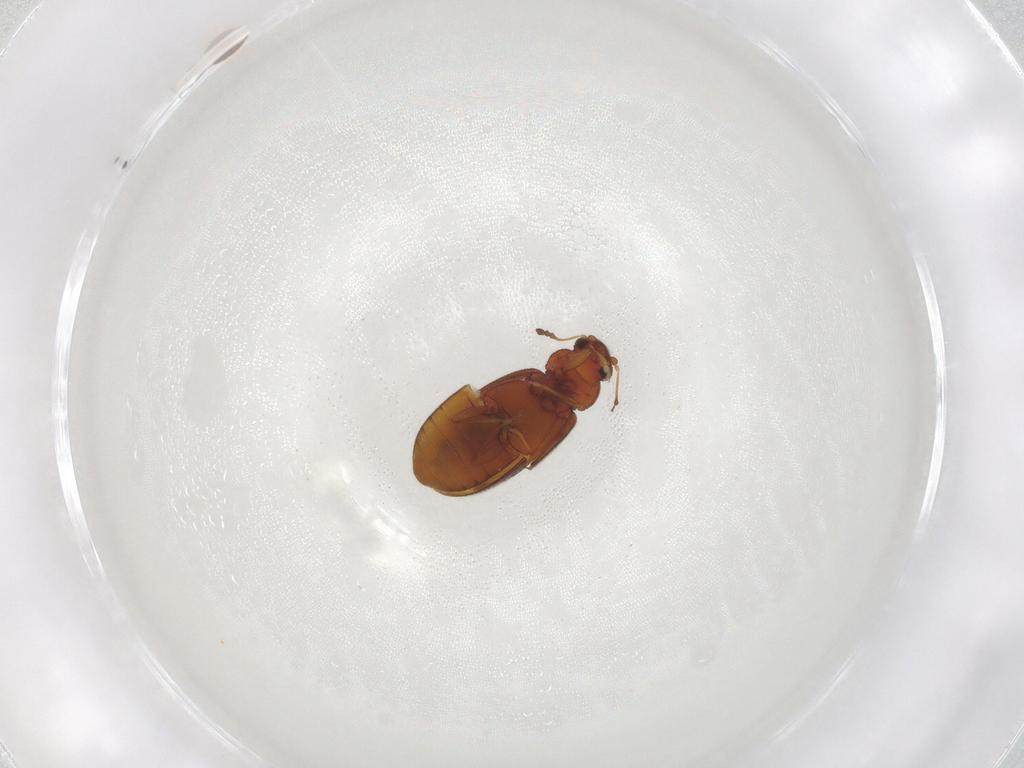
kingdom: Animalia
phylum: Arthropoda
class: Insecta
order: Coleoptera
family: Latridiidae
